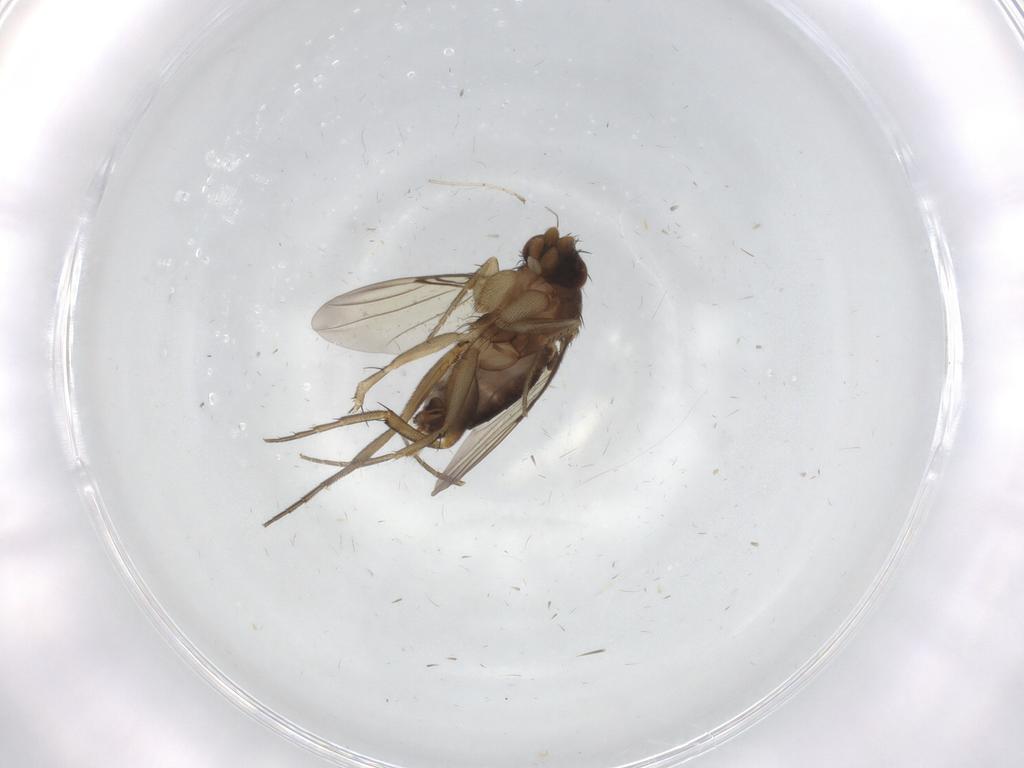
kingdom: Animalia
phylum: Arthropoda
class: Insecta
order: Diptera
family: Phoridae
